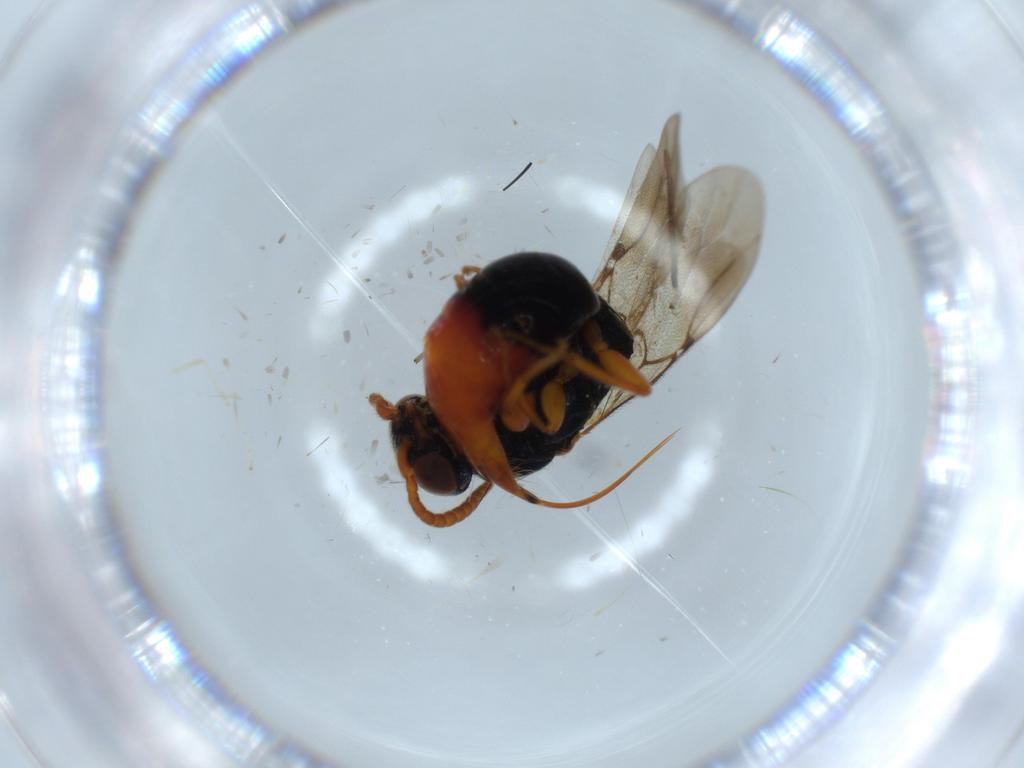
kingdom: Animalia
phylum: Arthropoda
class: Insecta
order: Hymenoptera
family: Bethylidae
